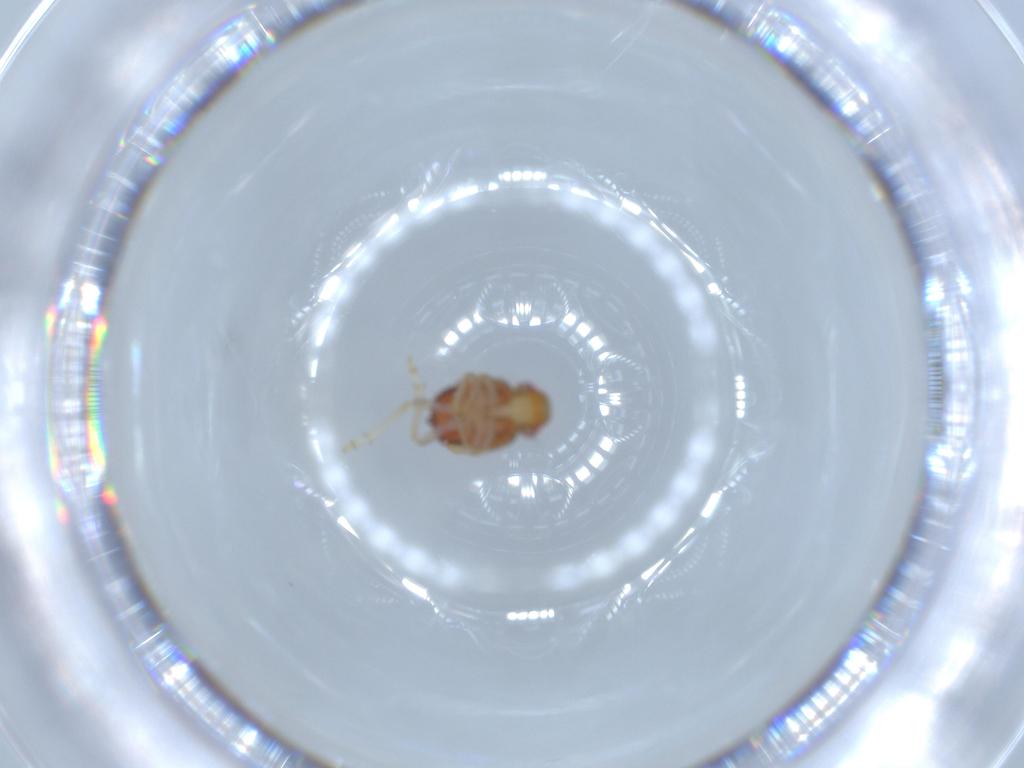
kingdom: Animalia
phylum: Arthropoda
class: Insecta
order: Hemiptera
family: Issidae
